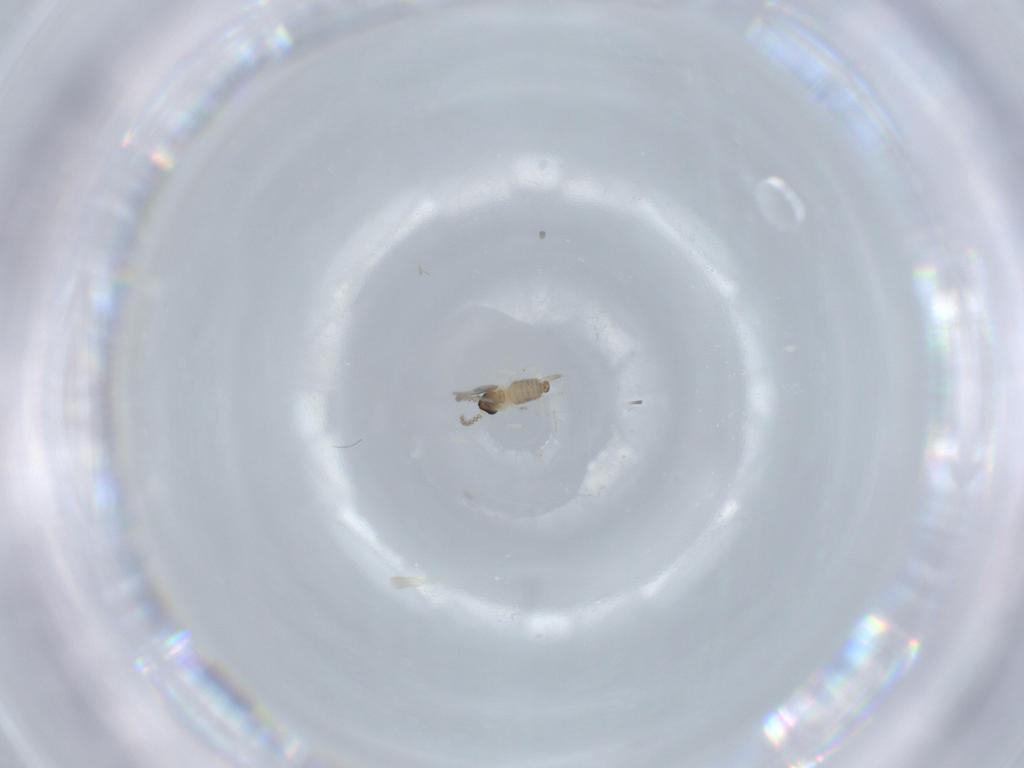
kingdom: Animalia
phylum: Arthropoda
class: Insecta
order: Diptera
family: Cecidomyiidae
